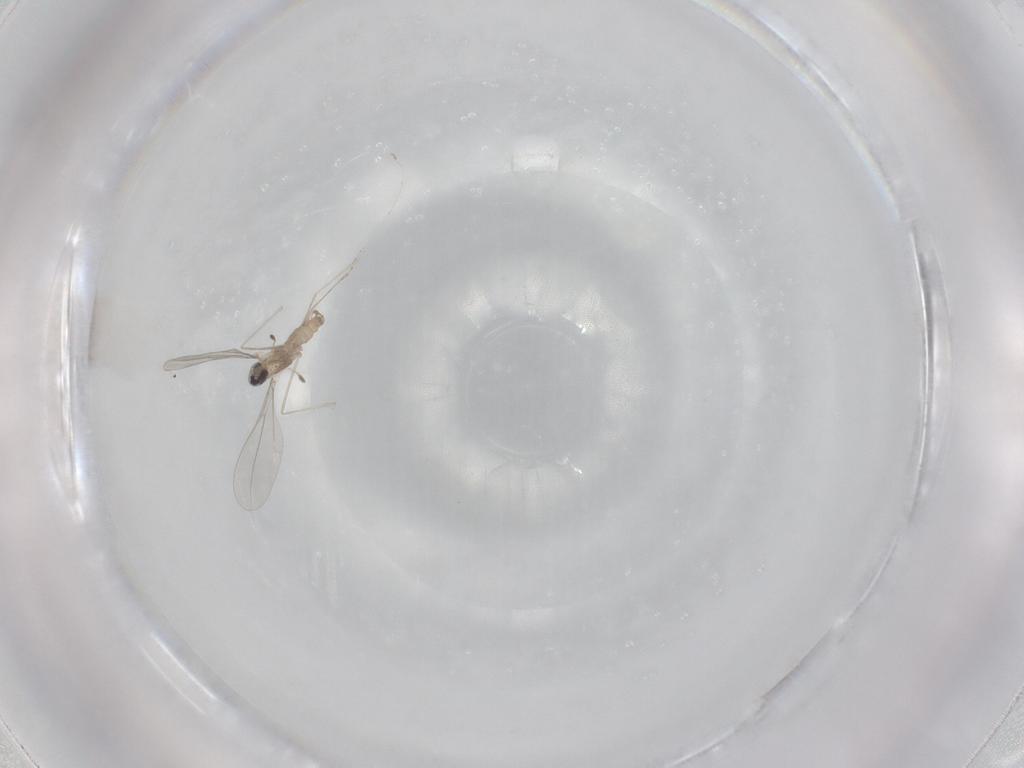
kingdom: Animalia
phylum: Arthropoda
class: Insecta
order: Diptera
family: Cecidomyiidae
